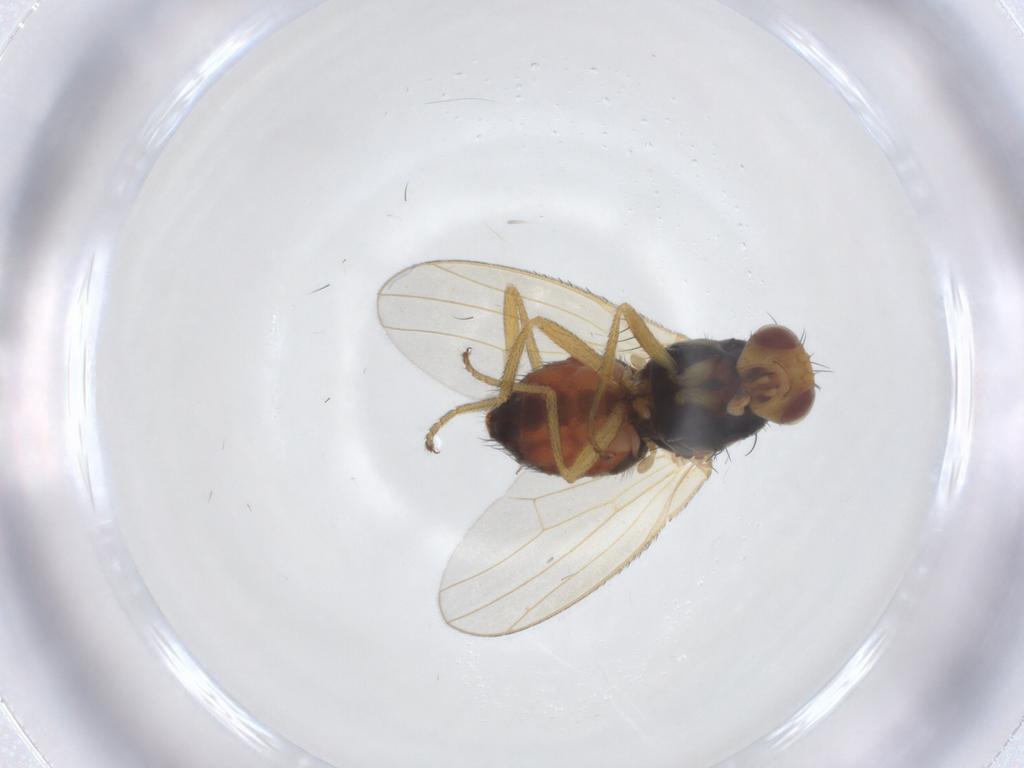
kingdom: Animalia
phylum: Arthropoda
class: Insecta
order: Diptera
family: Heleomyzidae
